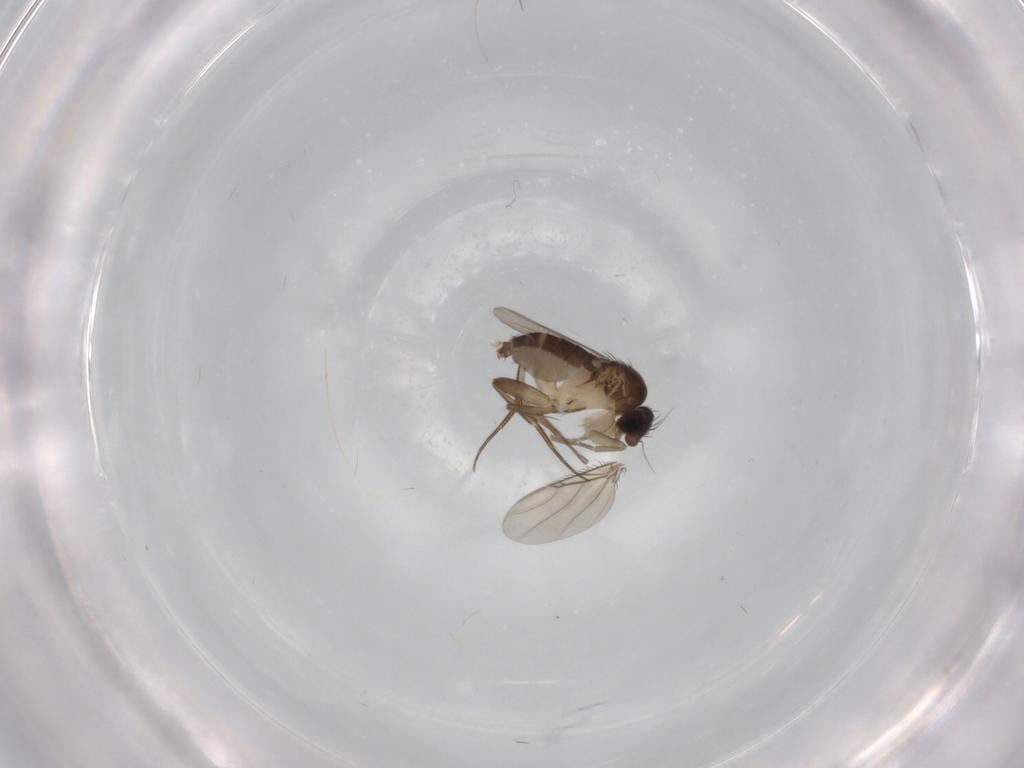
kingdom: Animalia
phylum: Arthropoda
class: Insecta
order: Diptera
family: Phoridae
